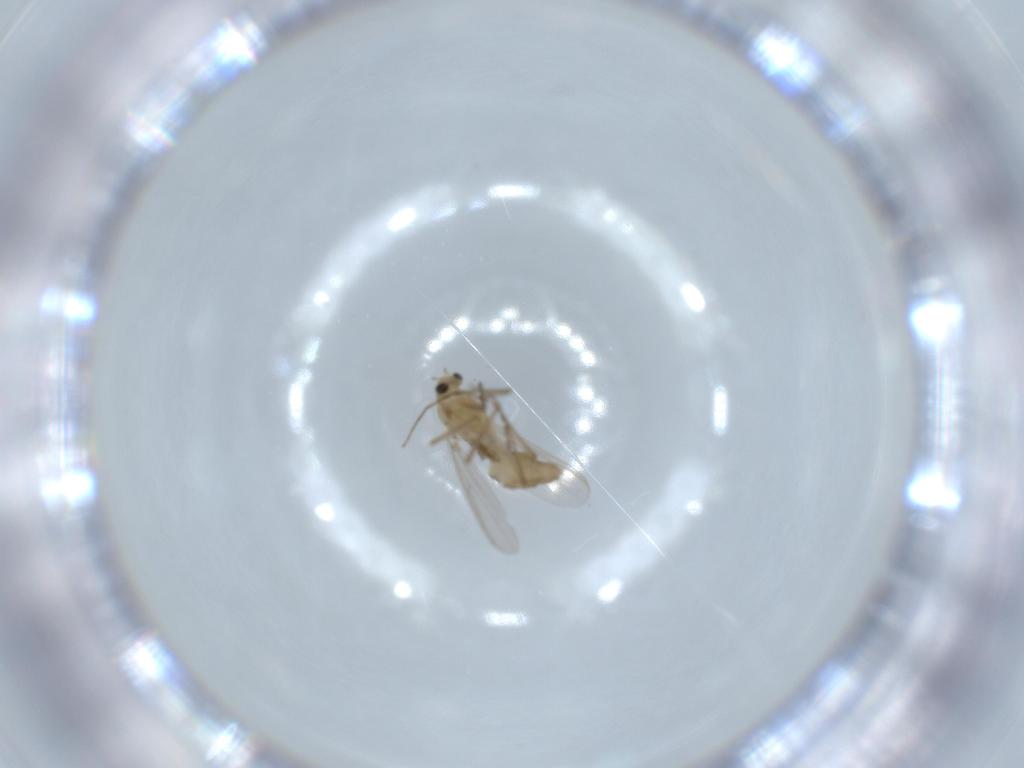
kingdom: Animalia
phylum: Arthropoda
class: Insecta
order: Diptera
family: Chironomidae
